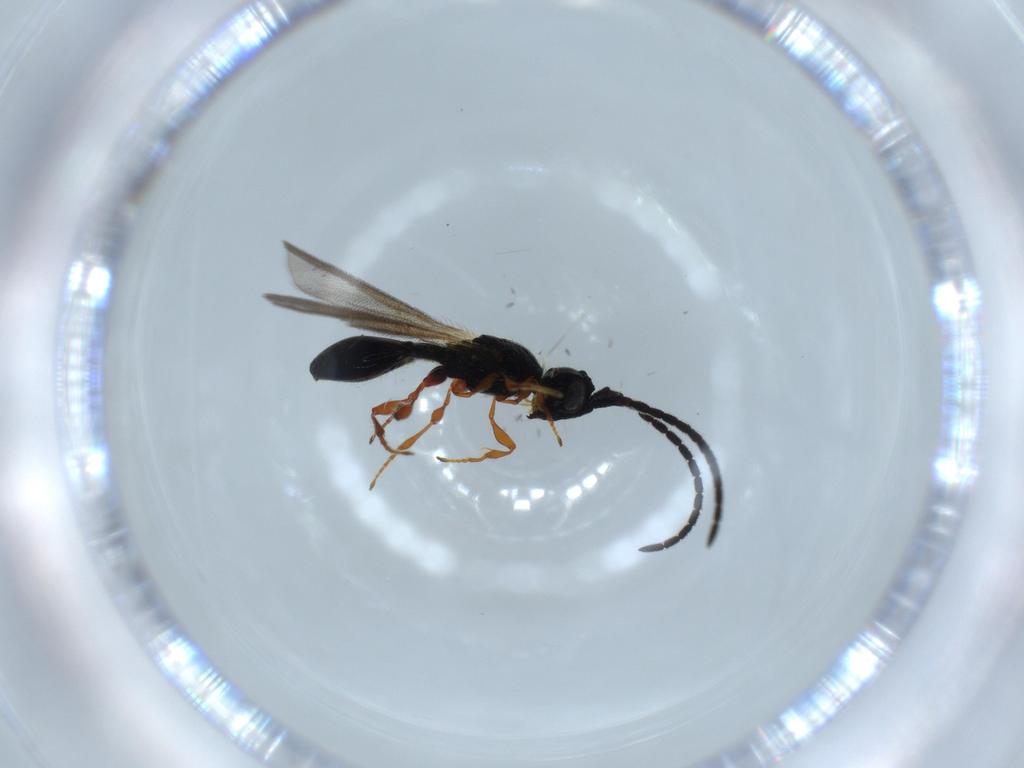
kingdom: Animalia
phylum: Arthropoda
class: Insecta
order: Hymenoptera
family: Diapriidae
